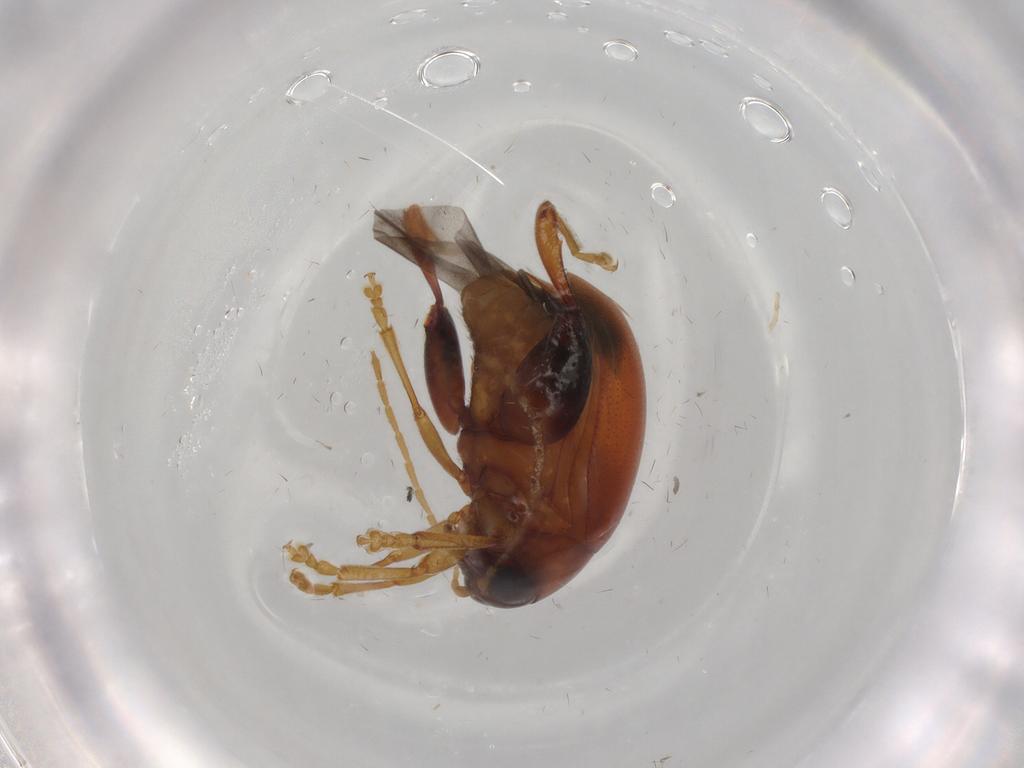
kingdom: Animalia
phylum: Arthropoda
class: Insecta
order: Coleoptera
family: Chrysomelidae
